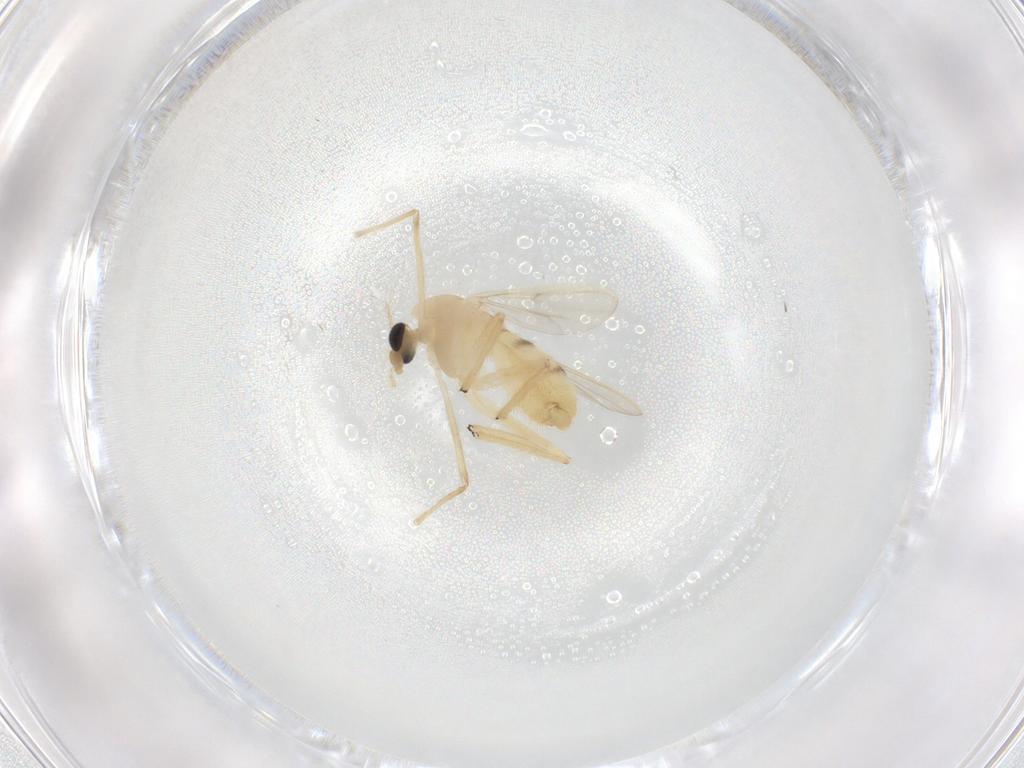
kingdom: Animalia
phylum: Arthropoda
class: Insecta
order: Diptera
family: Chironomidae
